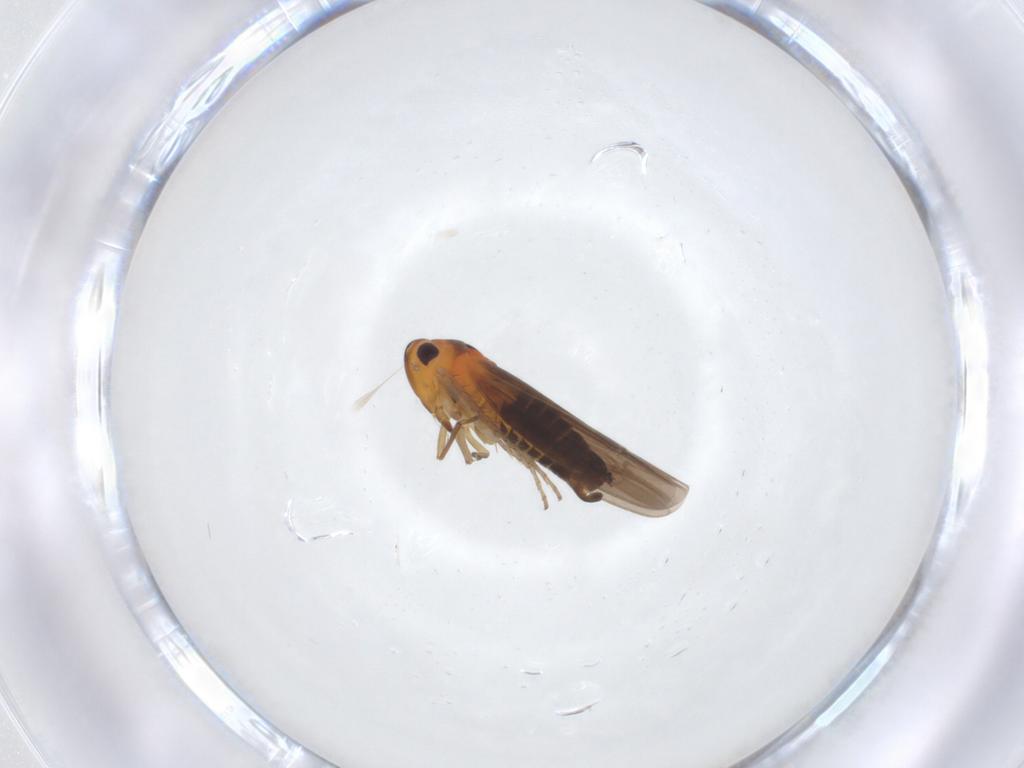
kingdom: Animalia
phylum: Arthropoda
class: Insecta
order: Hemiptera
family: Cicadellidae
